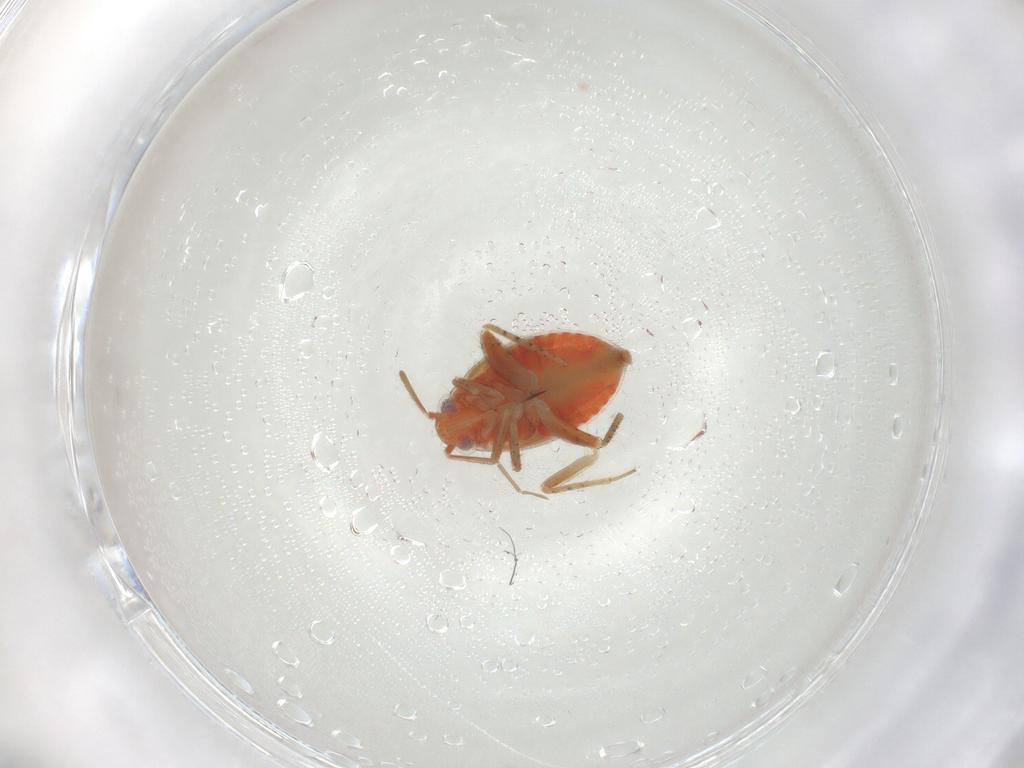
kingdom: Animalia
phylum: Arthropoda
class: Insecta
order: Hemiptera
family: Miridae
